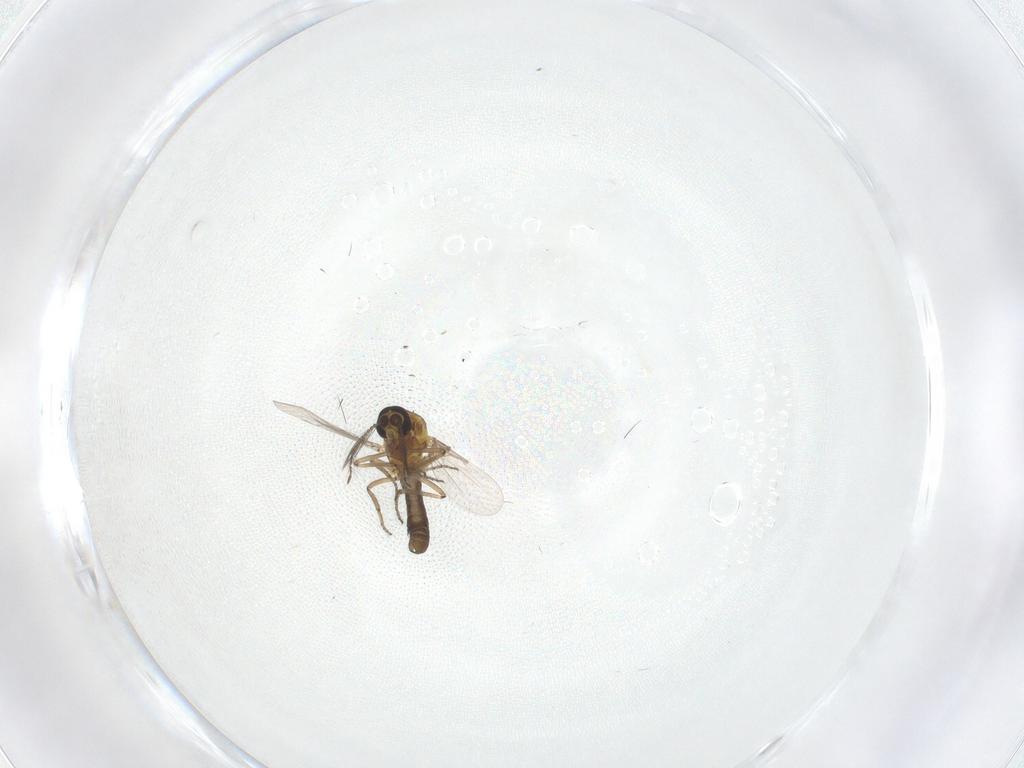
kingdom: Animalia
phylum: Arthropoda
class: Insecta
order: Diptera
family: Ceratopogonidae
